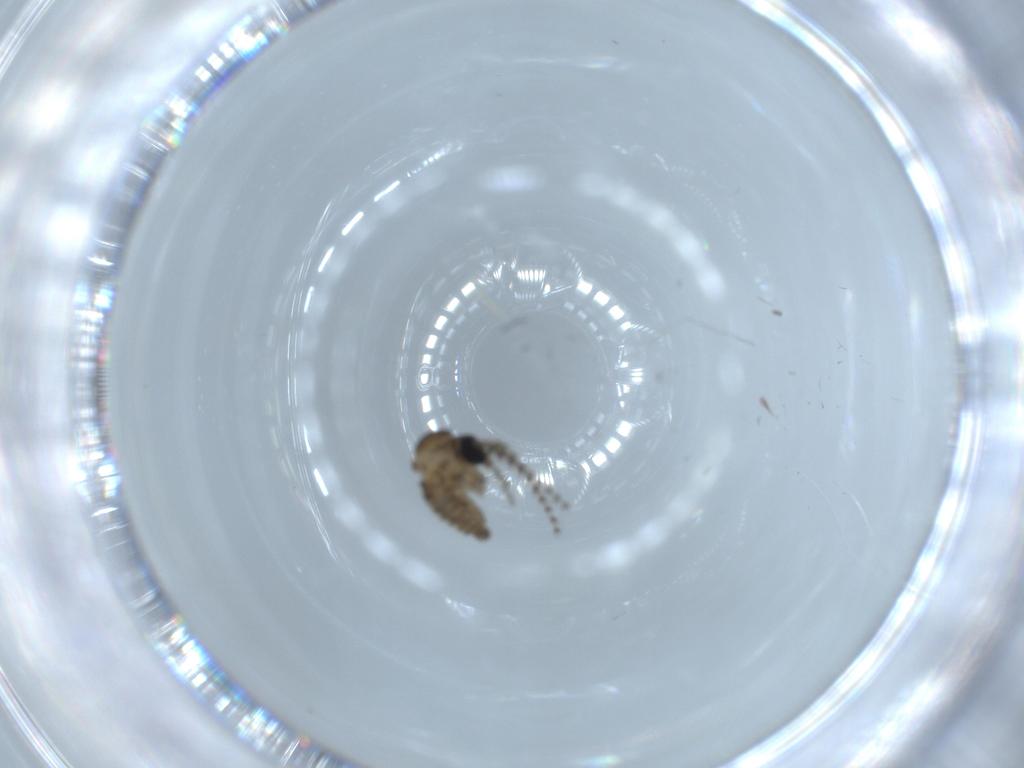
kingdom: Animalia
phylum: Arthropoda
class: Insecta
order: Diptera
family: Psychodidae
